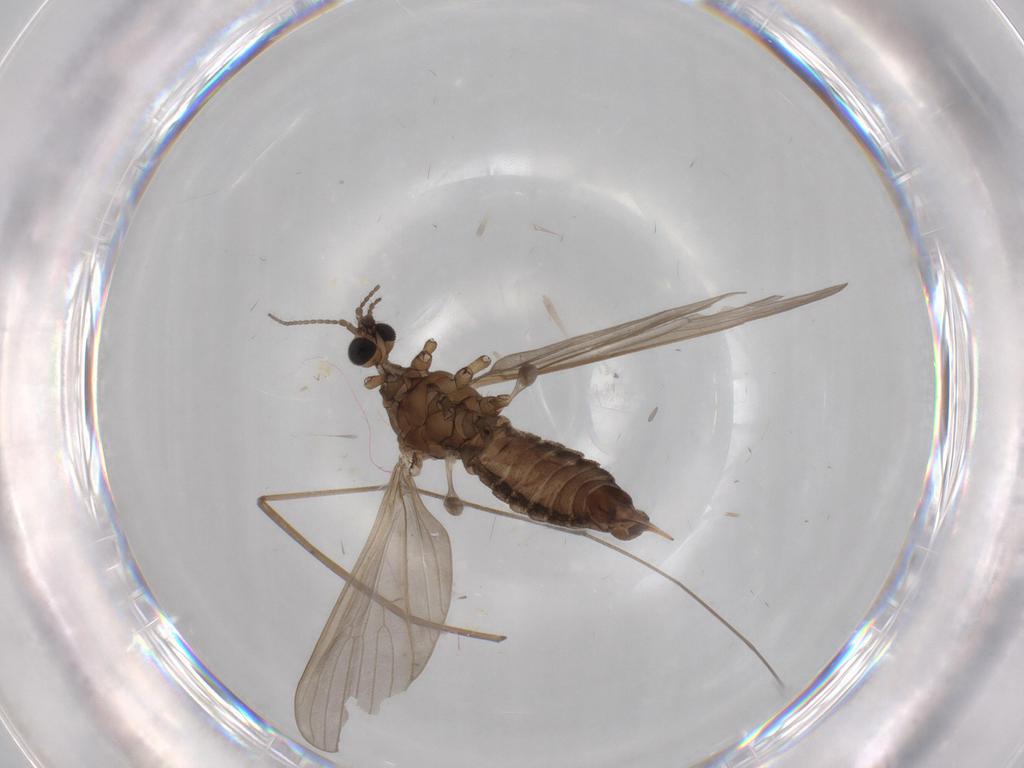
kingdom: Animalia
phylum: Arthropoda
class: Insecta
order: Diptera
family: Limoniidae
